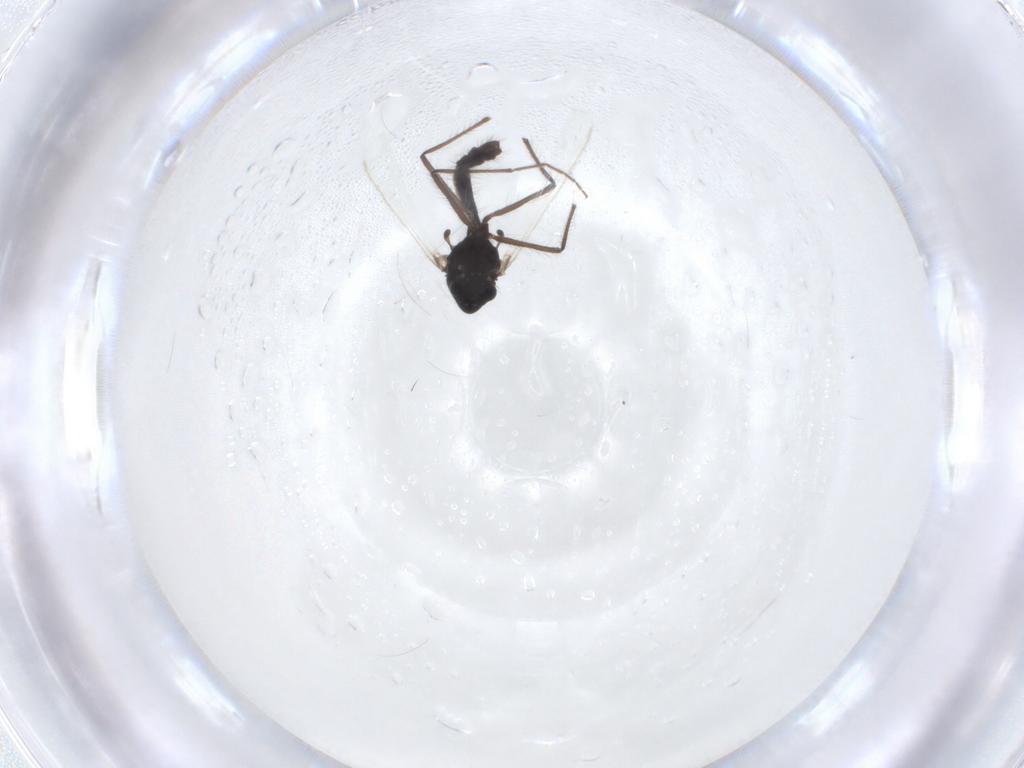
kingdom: Animalia
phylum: Arthropoda
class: Insecta
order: Diptera
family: Chironomidae
